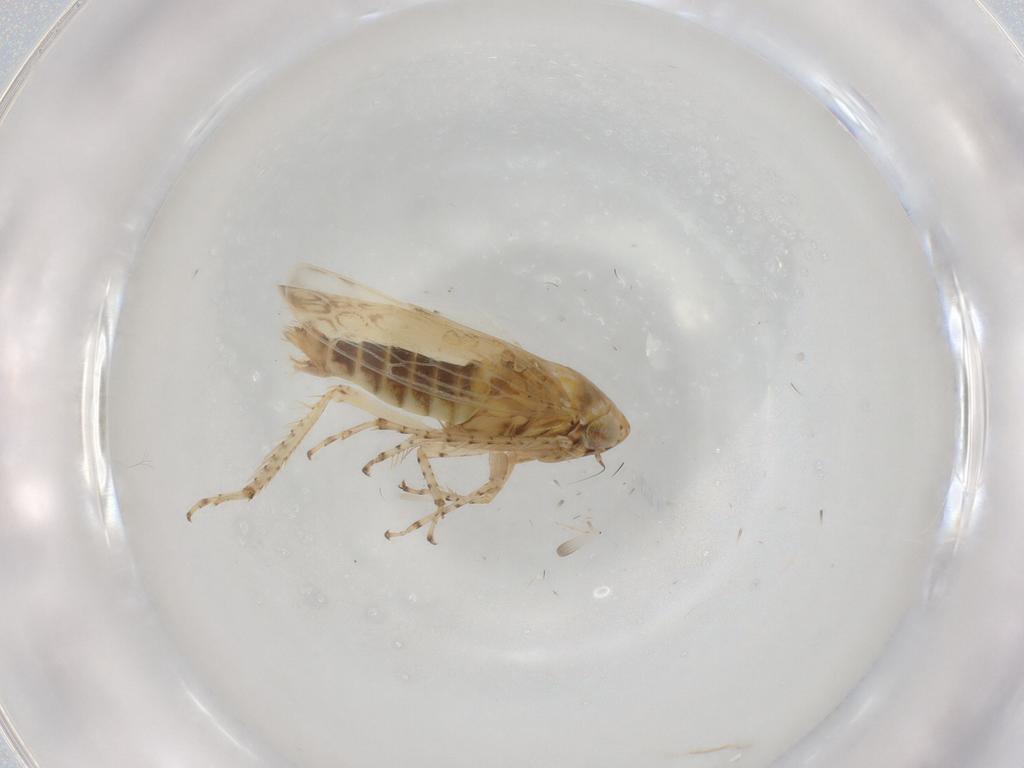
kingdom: Animalia
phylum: Arthropoda
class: Insecta
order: Hemiptera
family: Cicadellidae
